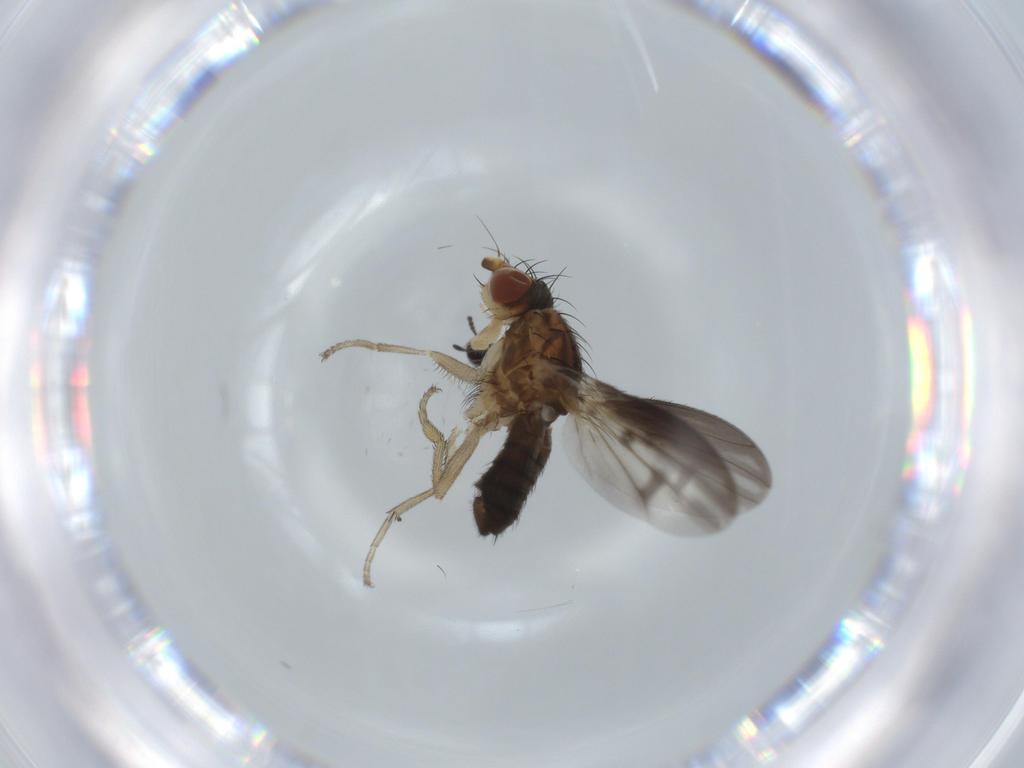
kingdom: Animalia
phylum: Arthropoda
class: Insecta
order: Diptera
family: Heleomyzidae
